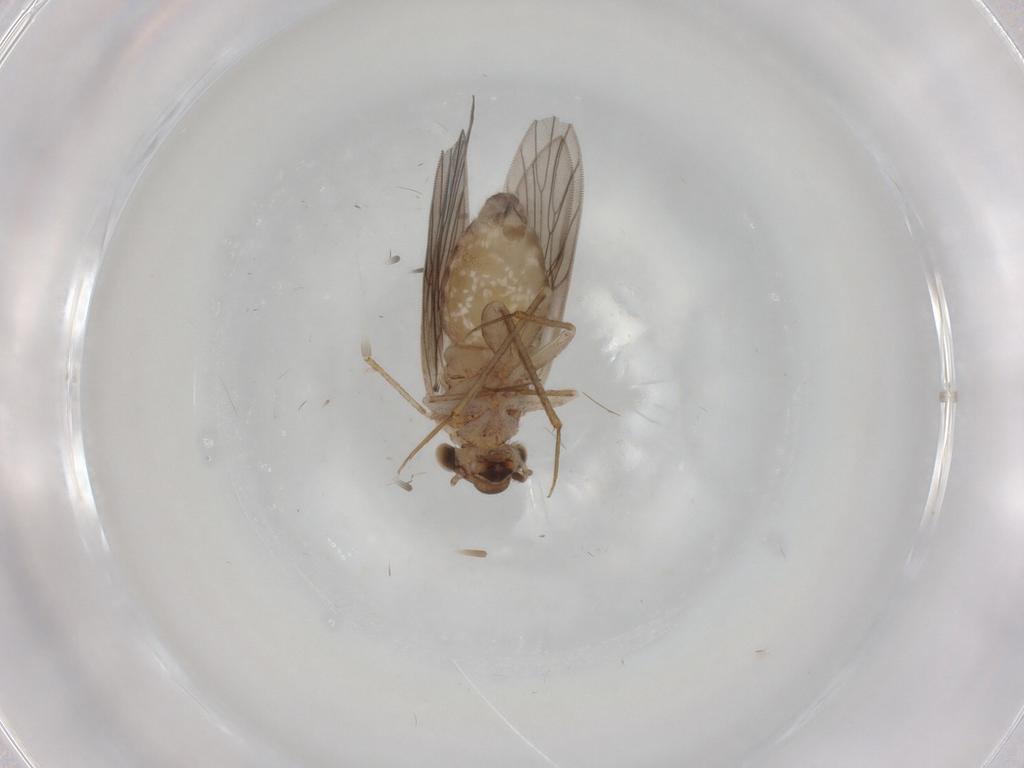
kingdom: Animalia
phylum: Arthropoda
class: Insecta
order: Psocodea
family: Lepidopsocidae
